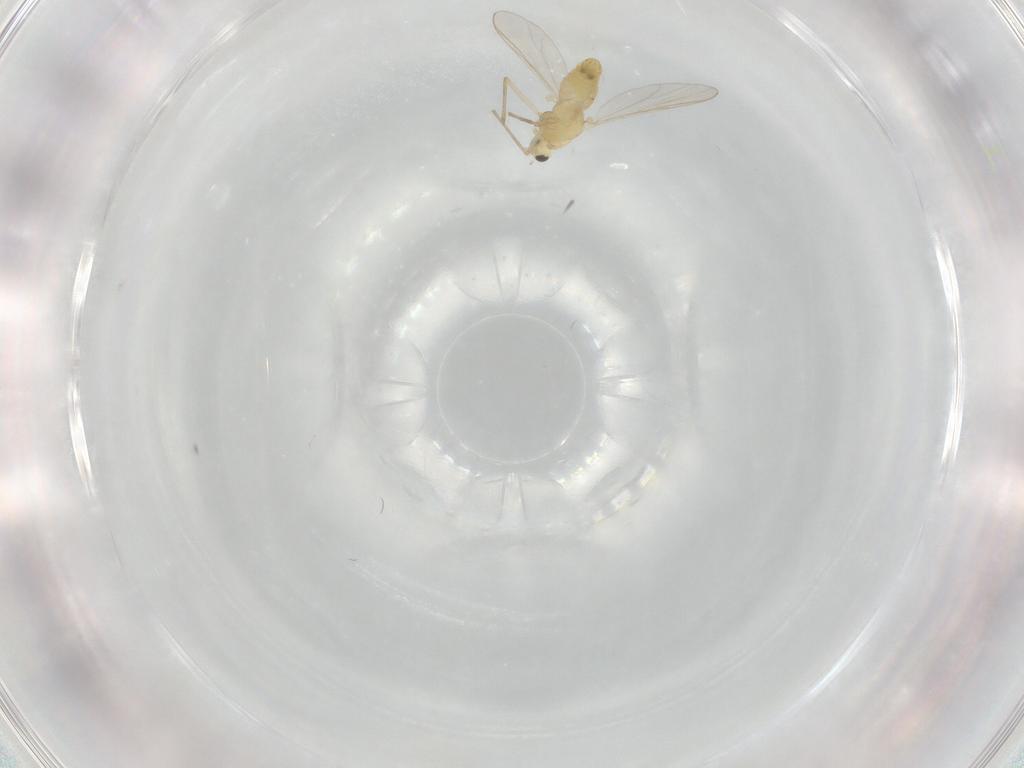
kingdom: Animalia
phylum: Arthropoda
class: Insecta
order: Diptera
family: Chironomidae
